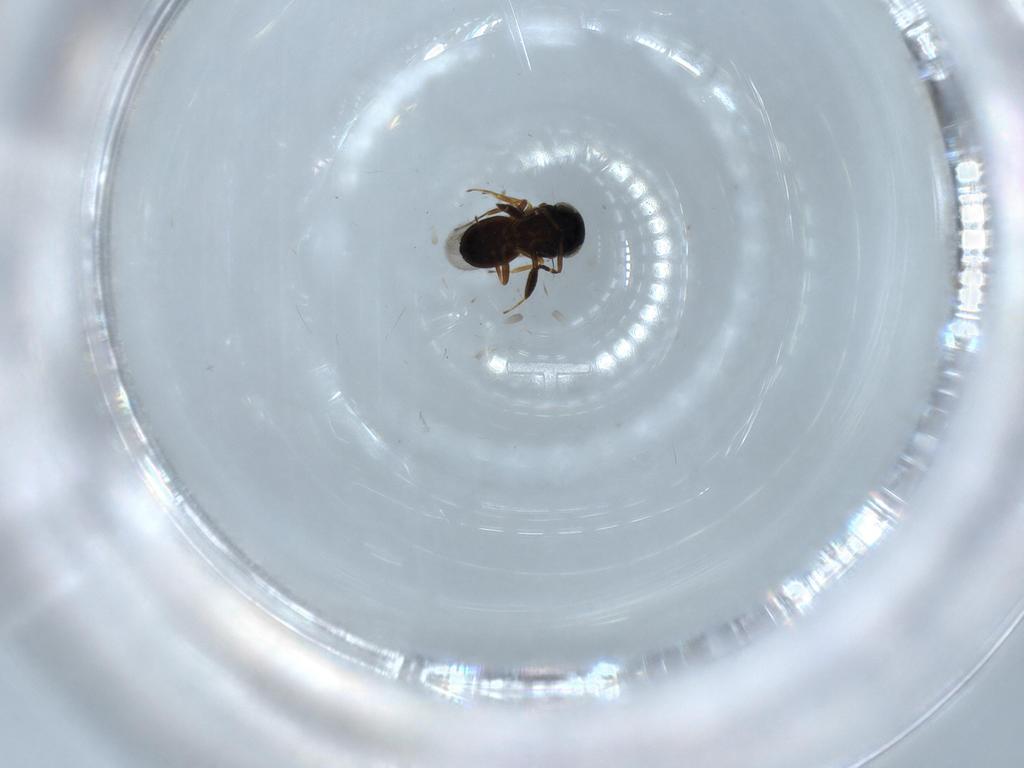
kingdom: Animalia
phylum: Arthropoda
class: Insecta
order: Hymenoptera
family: Scelionidae
